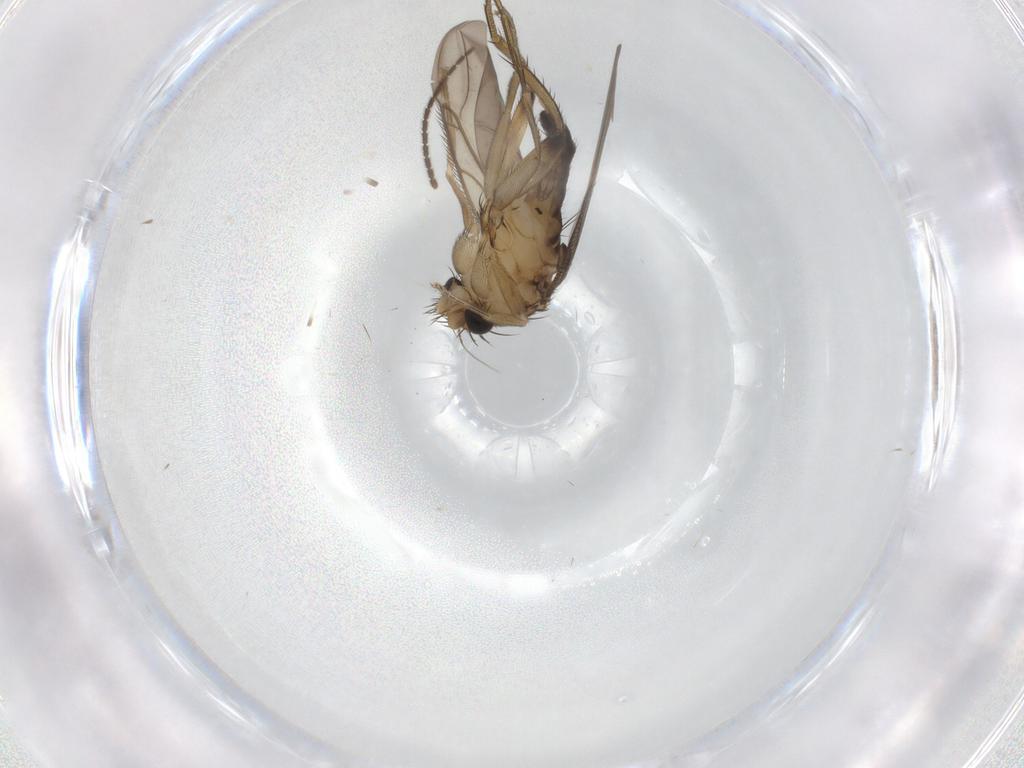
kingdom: Animalia
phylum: Arthropoda
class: Insecta
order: Diptera
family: Phoridae
